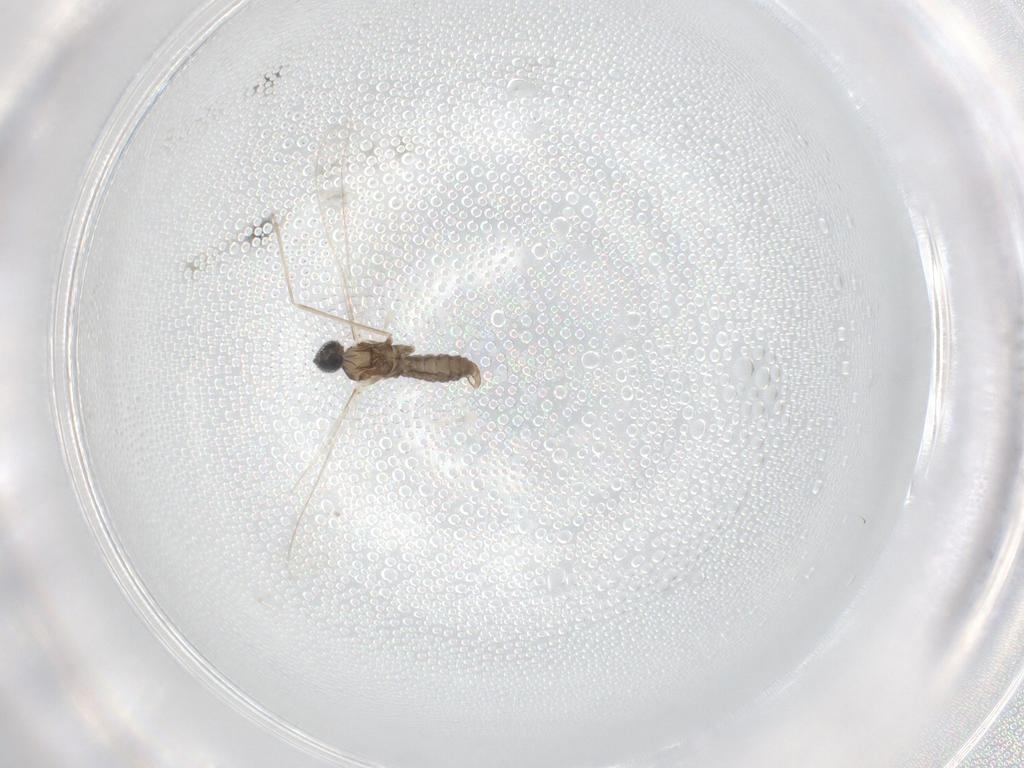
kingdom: Animalia
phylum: Arthropoda
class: Insecta
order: Diptera
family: Cecidomyiidae
